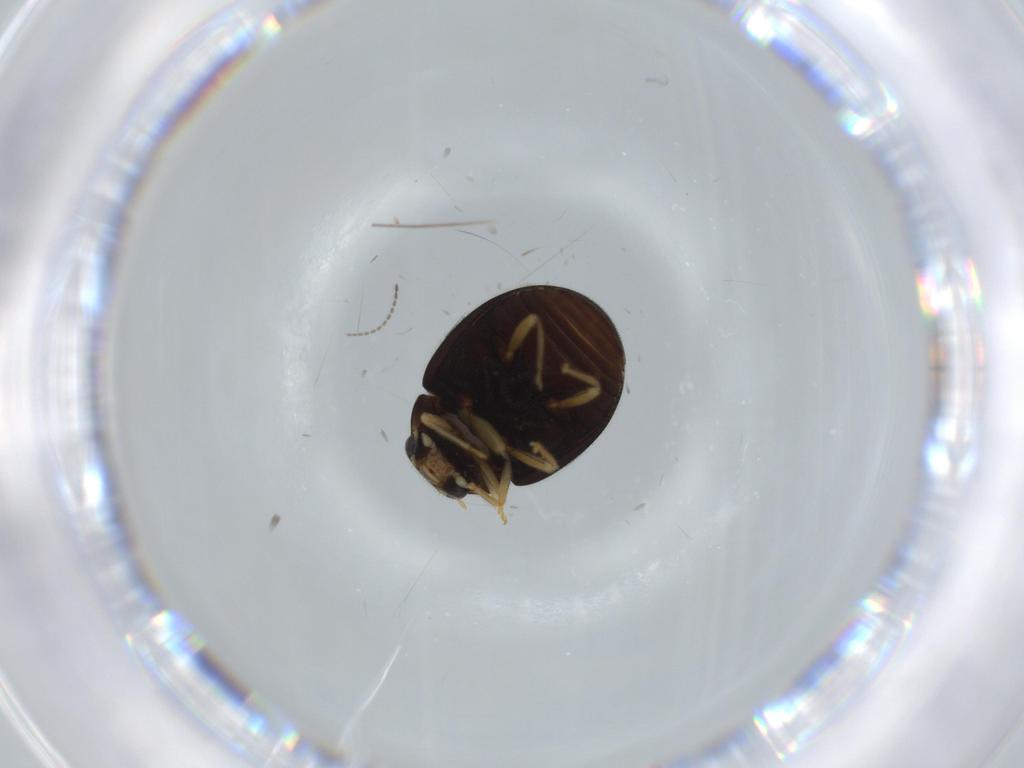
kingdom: Animalia
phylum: Arthropoda
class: Insecta
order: Coleoptera
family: Coccinellidae
